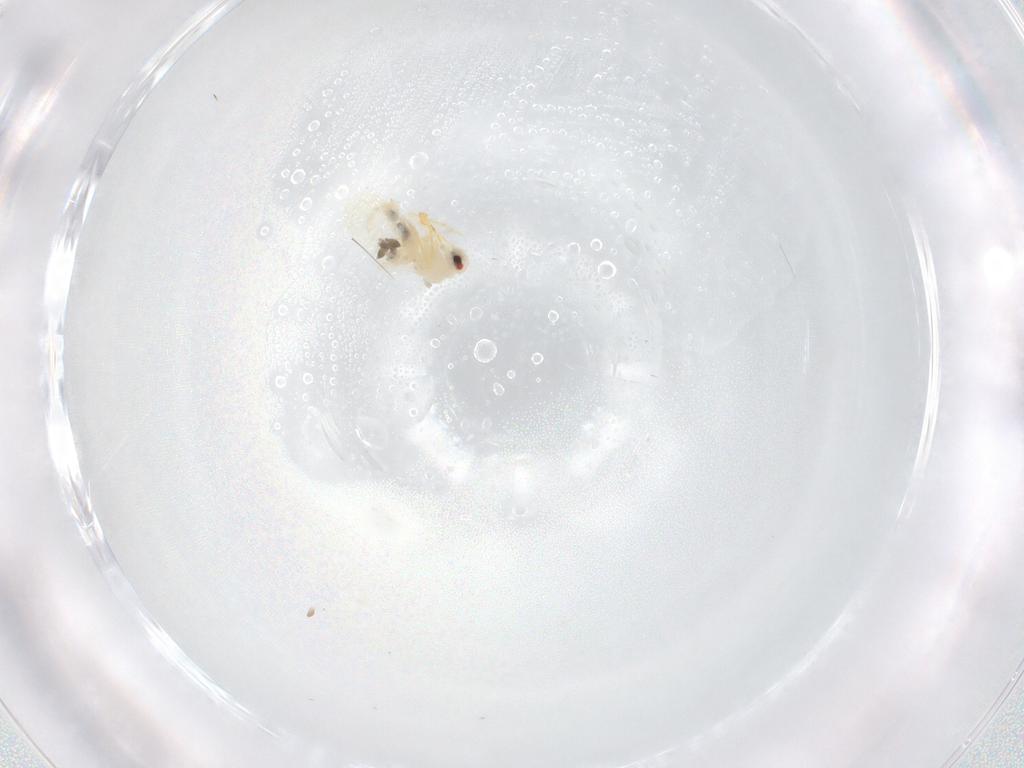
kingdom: Animalia
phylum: Arthropoda
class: Insecta
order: Hemiptera
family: Aleyrodidae
